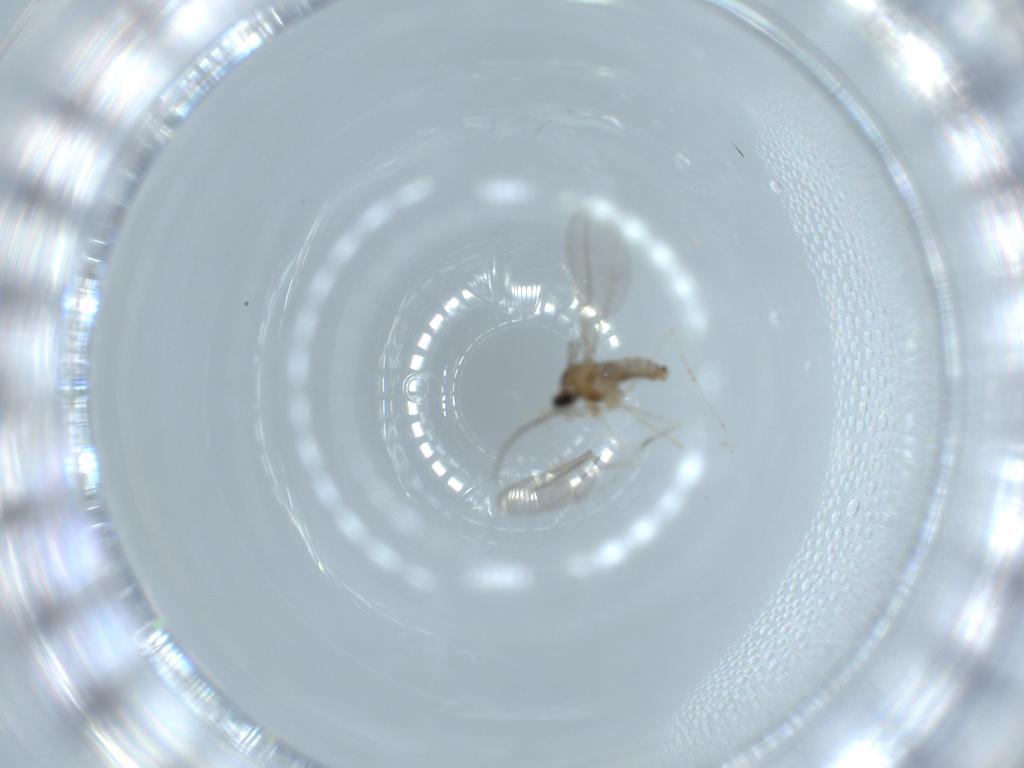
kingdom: Animalia
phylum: Arthropoda
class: Insecta
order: Diptera
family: Cecidomyiidae
